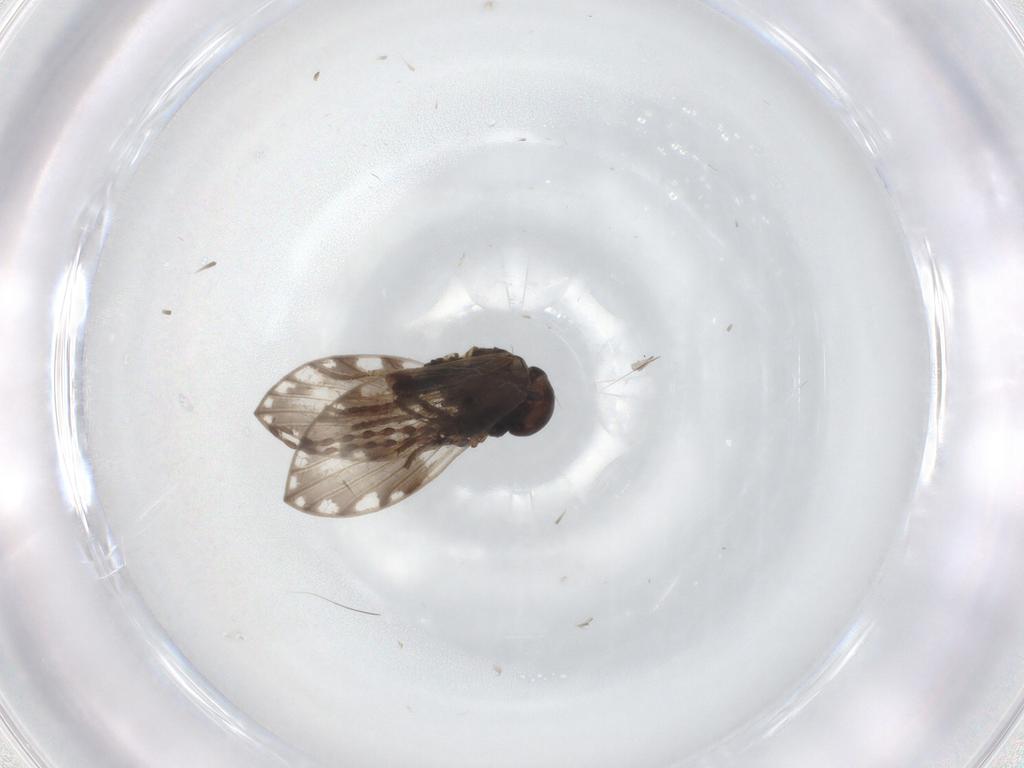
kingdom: Animalia
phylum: Arthropoda
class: Insecta
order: Diptera
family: Psychodidae
